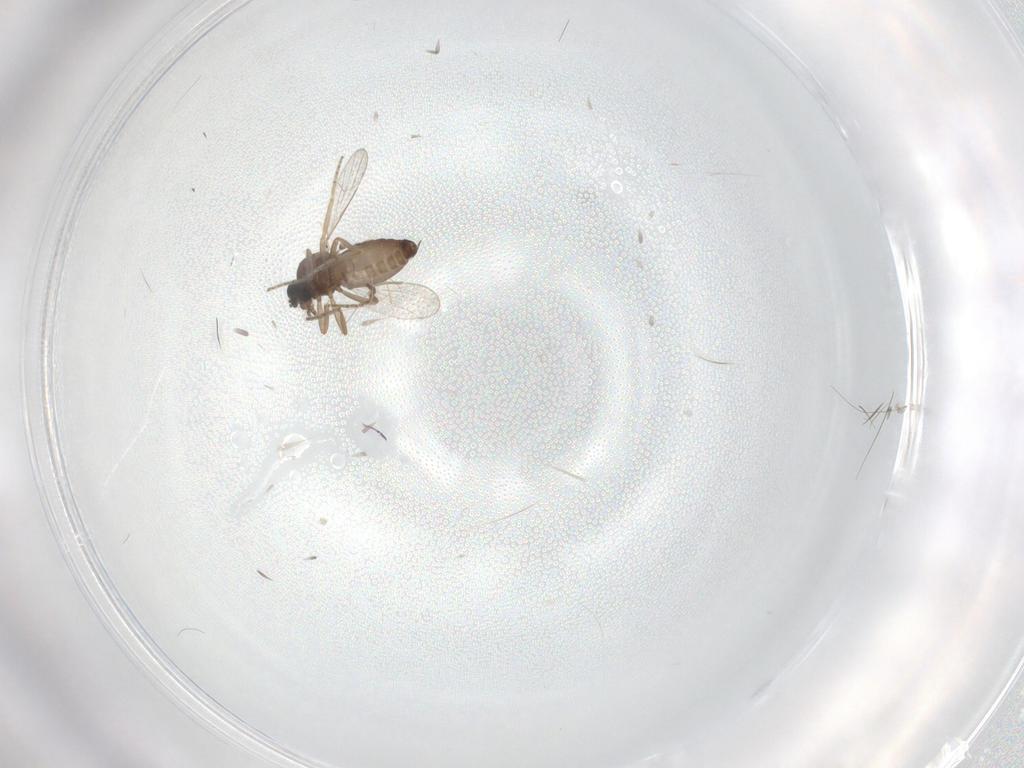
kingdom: Animalia
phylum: Arthropoda
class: Insecta
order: Diptera
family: Ceratopogonidae
